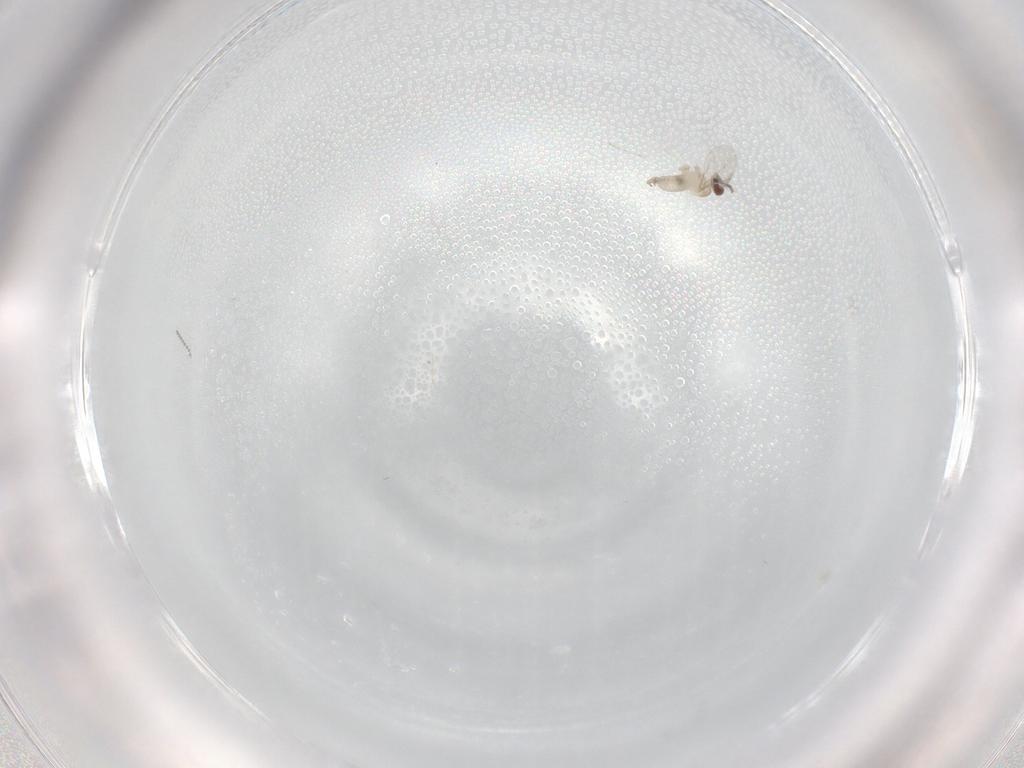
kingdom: Animalia
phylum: Arthropoda
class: Insecta
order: Diptera
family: Cecidomyiidae
